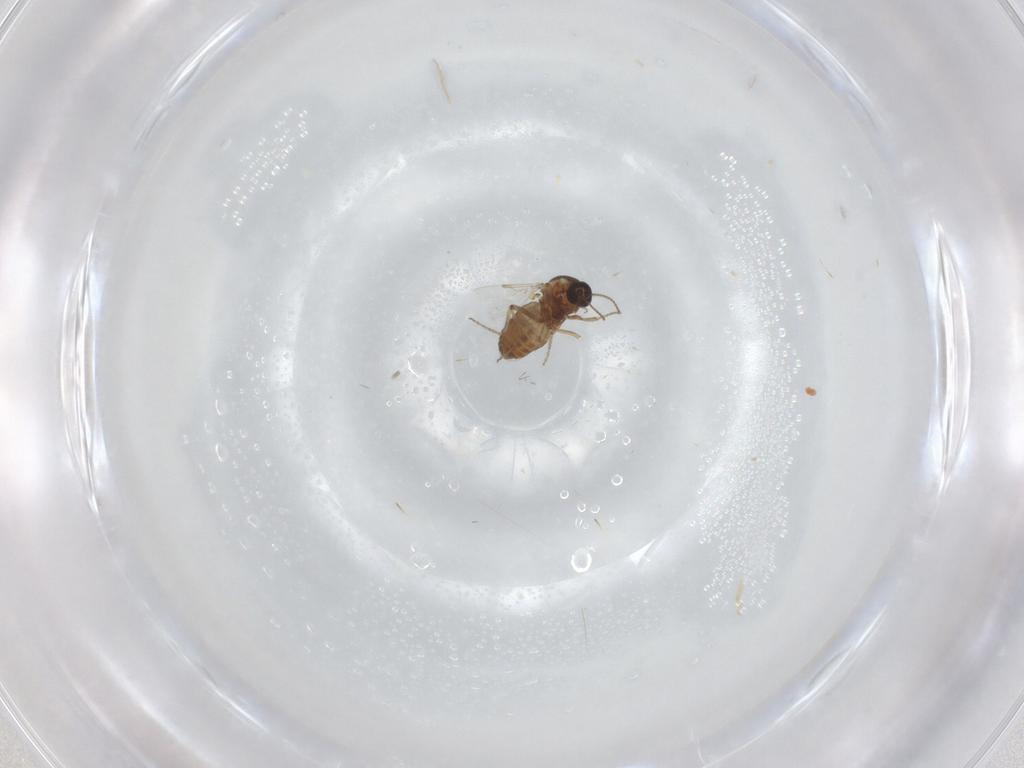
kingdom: Animalia
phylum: Arthropoda
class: Insecta
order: Diptera
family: Ceratopogonidae
